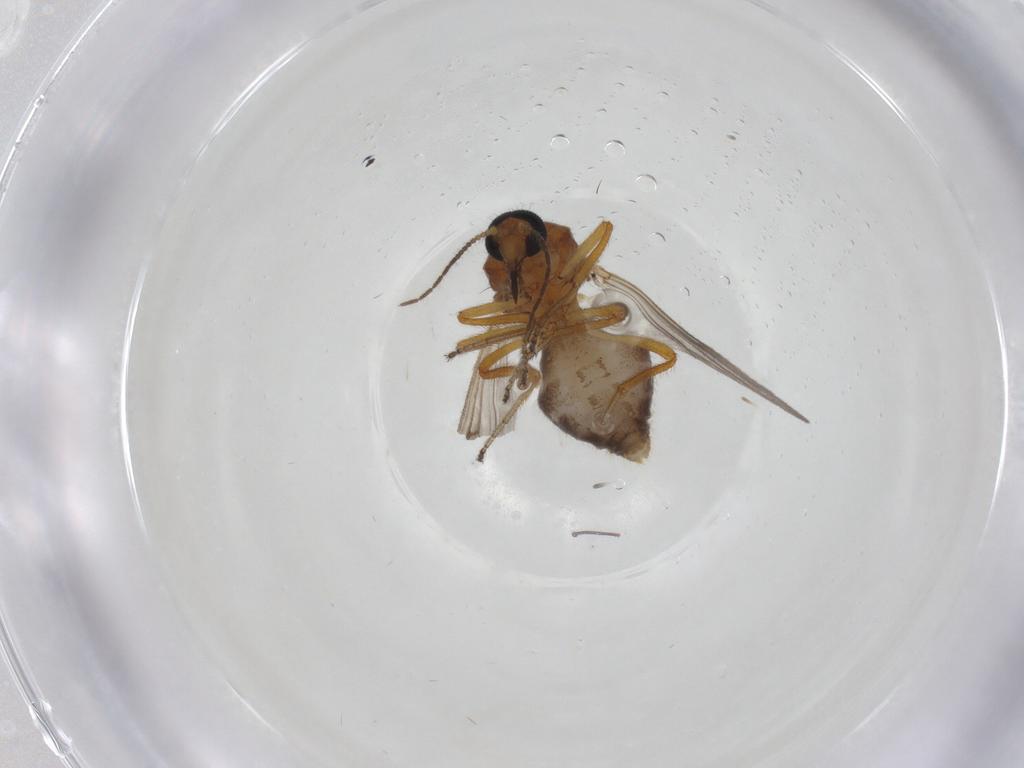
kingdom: Animalia
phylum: Arthropoda
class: Insecta
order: Diptera
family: Ceratopogonidae
